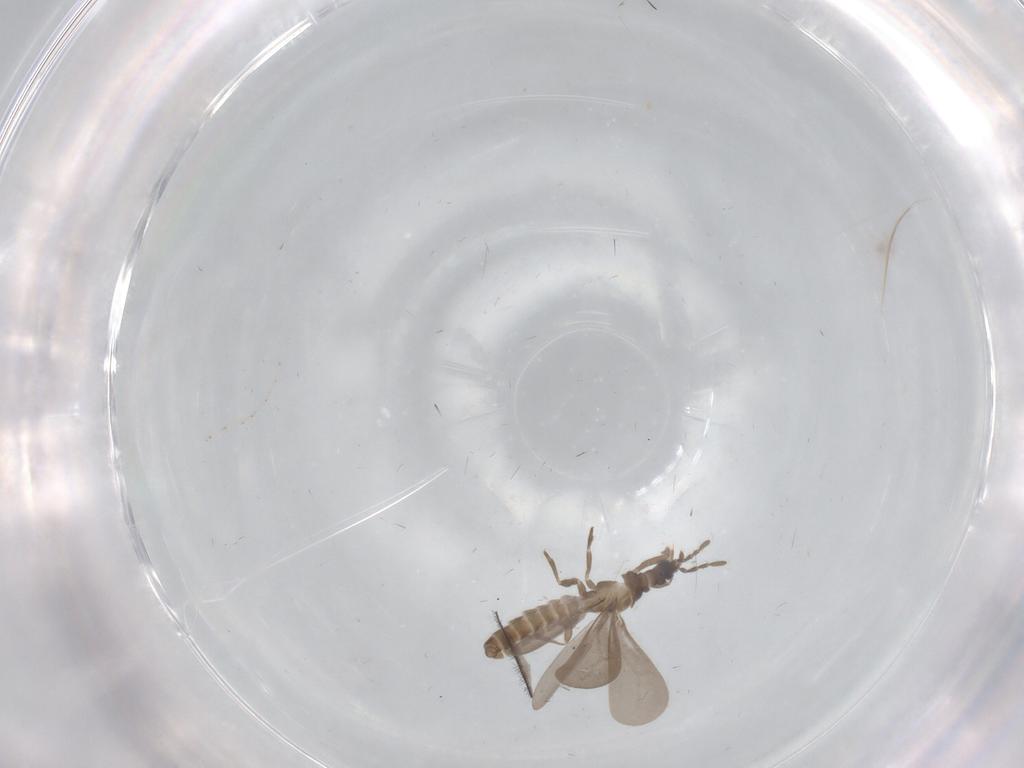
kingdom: Animalia
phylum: Arthropoda
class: Insecta
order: Hemiptera
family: Enicocephalidae
